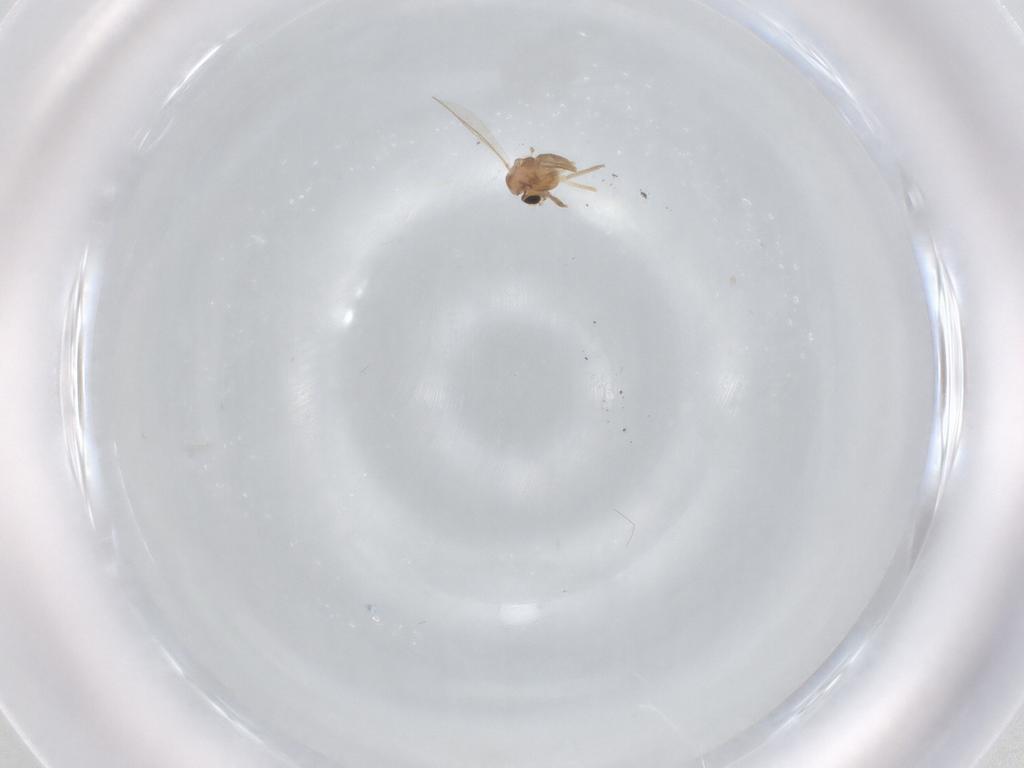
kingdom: Animalia
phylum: Arthropoda
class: Insecta
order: Diptera
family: Chironomidae
